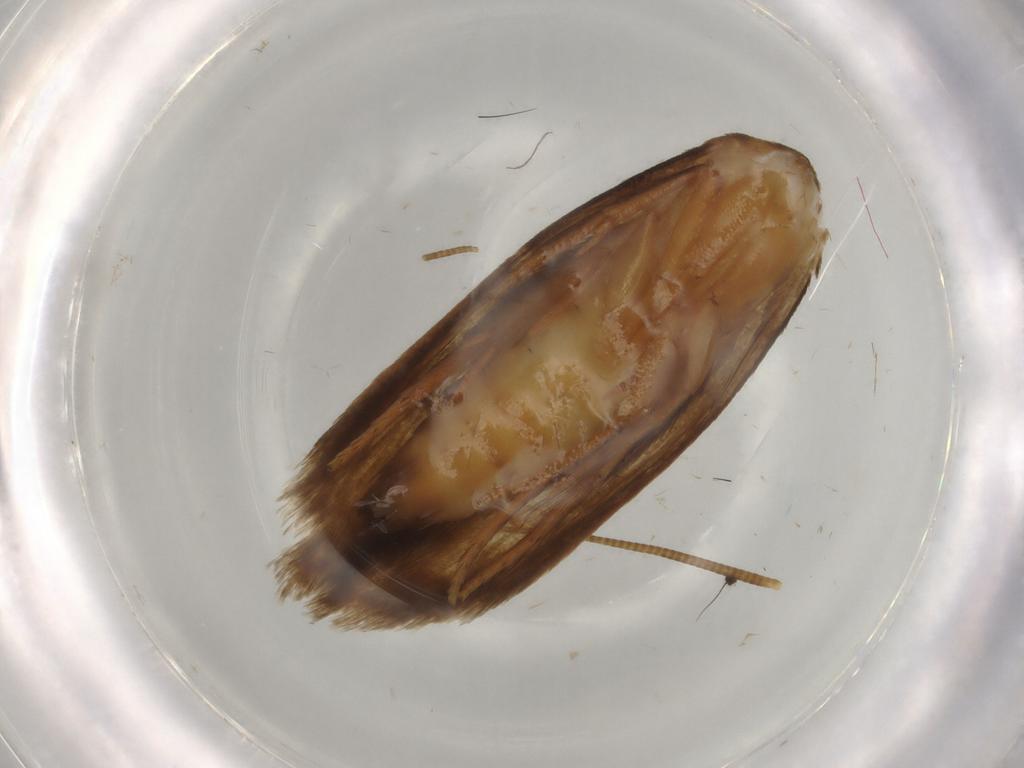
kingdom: Animalia
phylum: Arthropoda
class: Insecta
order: Lepidoptera
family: Tineidae
